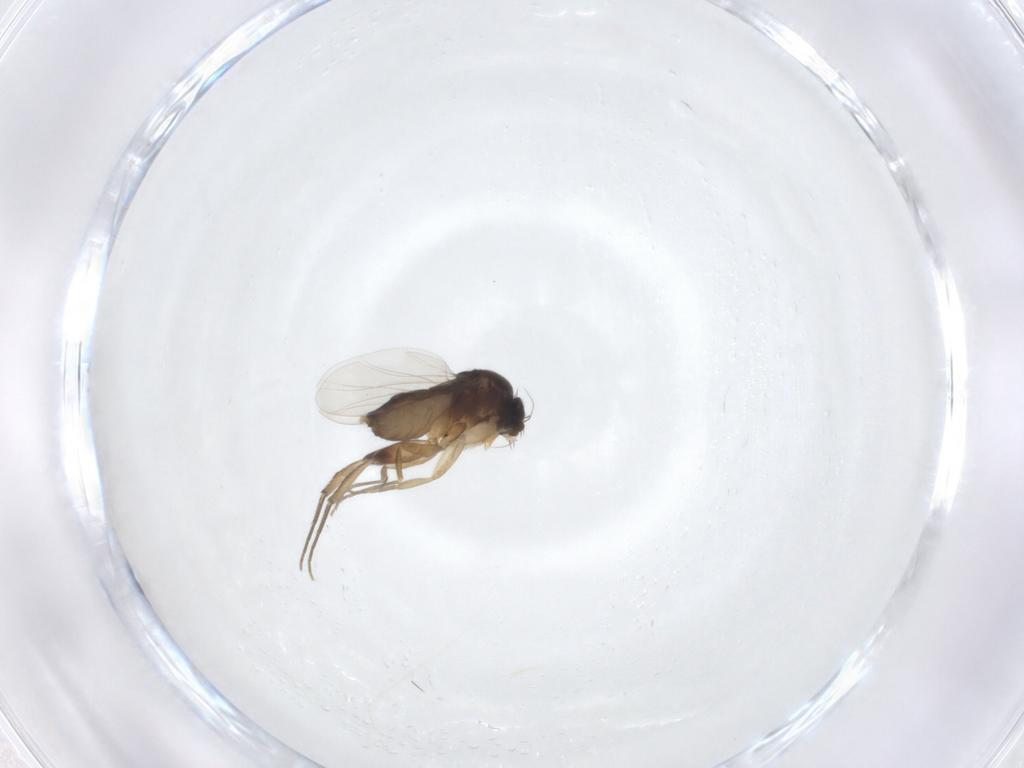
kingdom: Animalia
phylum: Arthropoda
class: Insecta
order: Diptera
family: Phoridae
